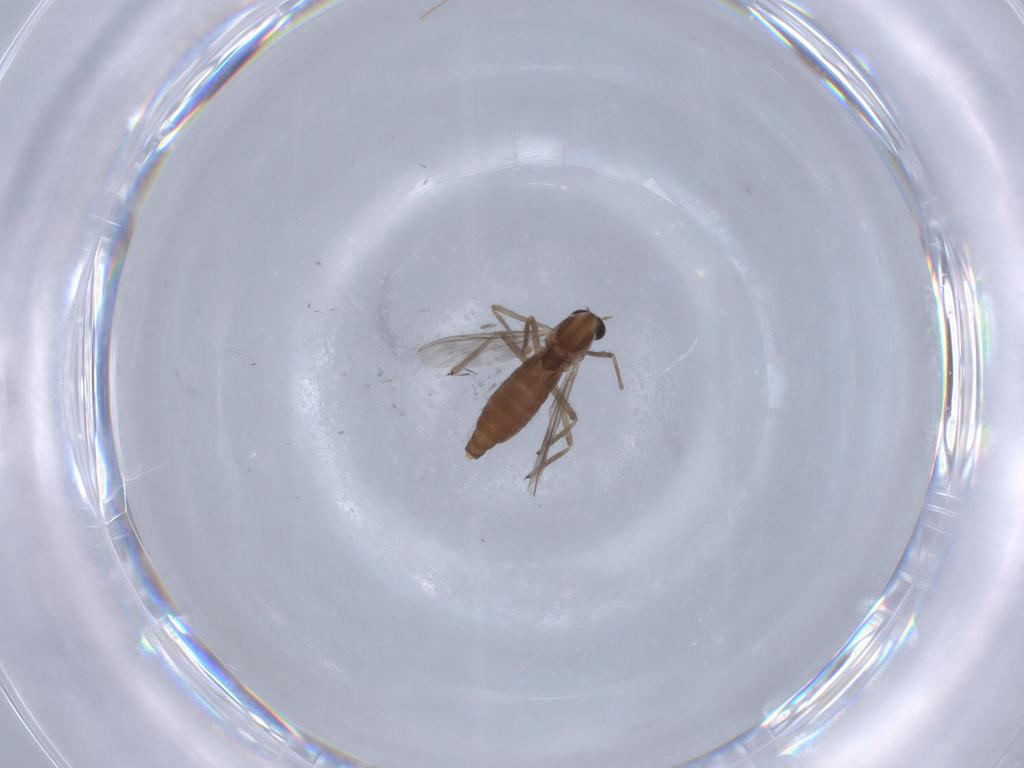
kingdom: Animalia
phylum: Arthropoda
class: Insecta
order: Diptera
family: Chironomidae
